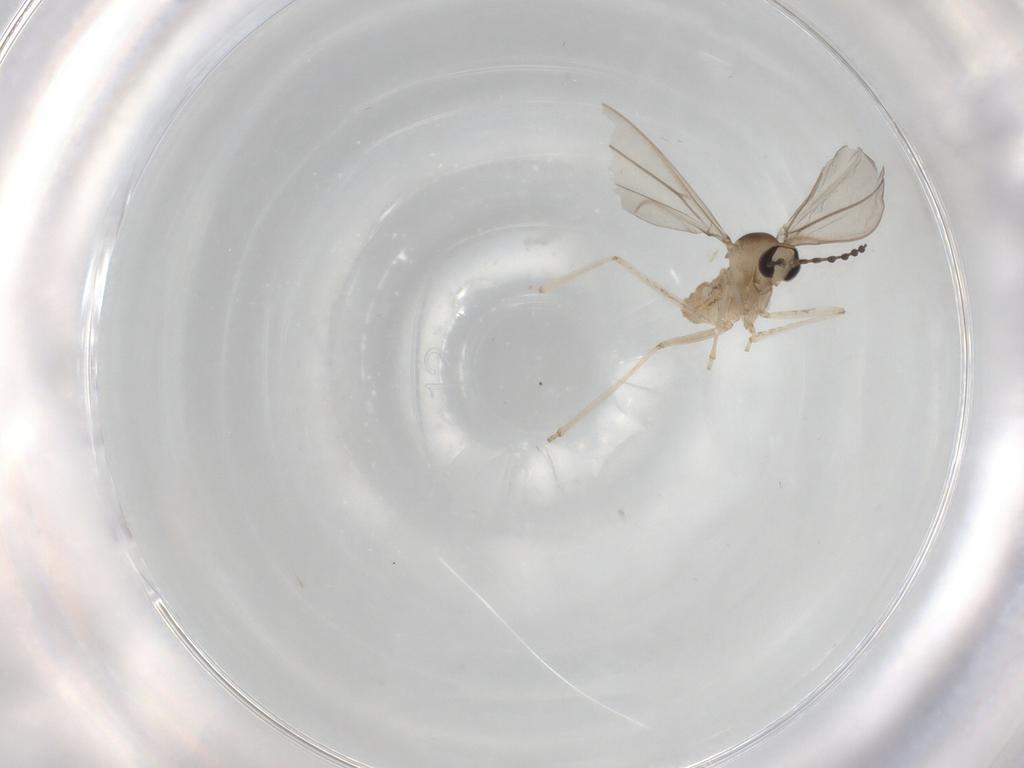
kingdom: Animalia
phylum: Arthropoda
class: Insecta
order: Diptera
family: Cecidomyiidae
